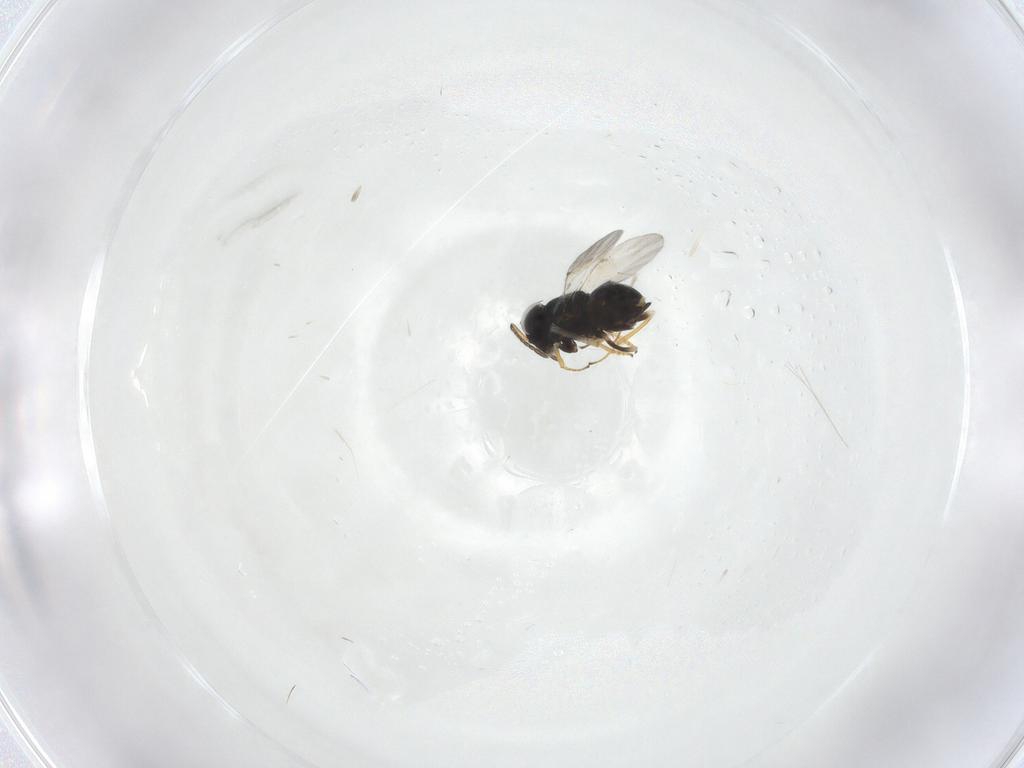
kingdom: Animalia
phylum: Arthropoda
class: Insecta
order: Hymenoptera
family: Encyrtidae
